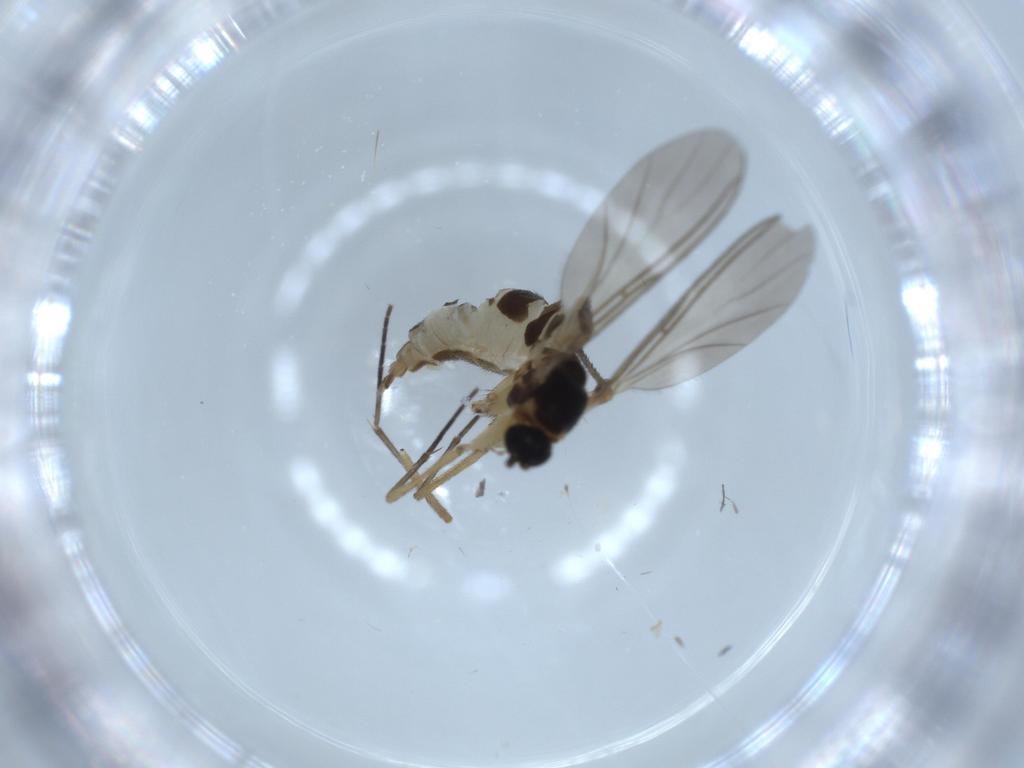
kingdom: Animalia
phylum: Arthropoda
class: Insecta
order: Diptera
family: Sciaridae
